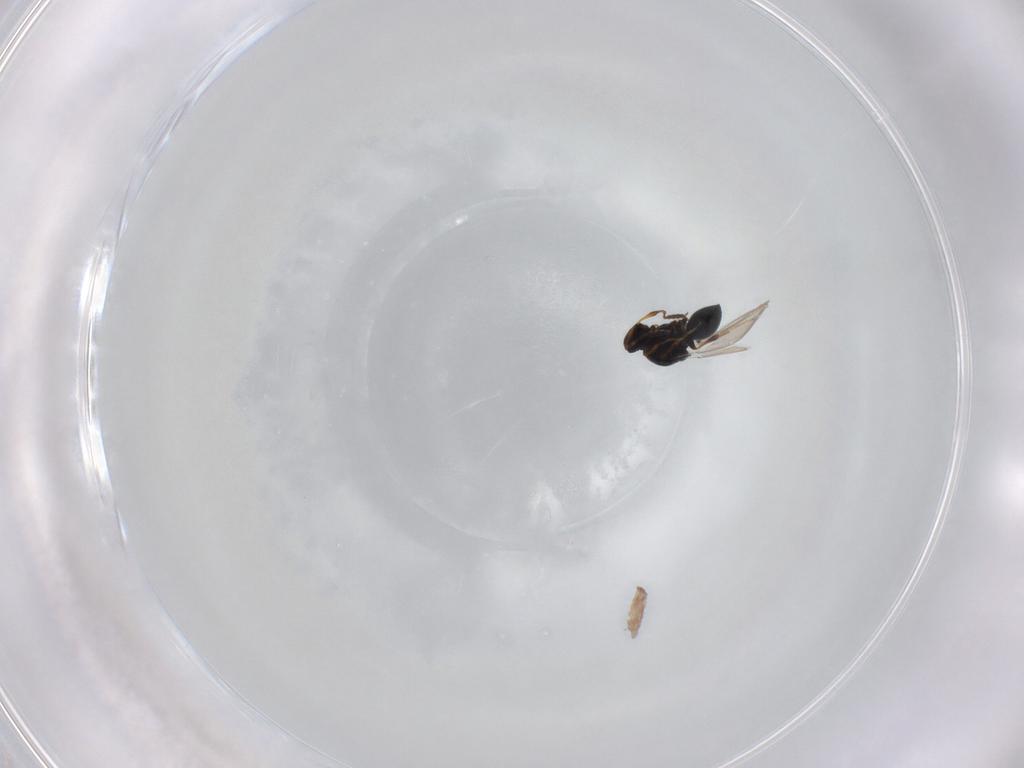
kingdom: Animalia
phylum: Arthropoda
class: Insecta
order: Hymenoptera
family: Platygastridae
